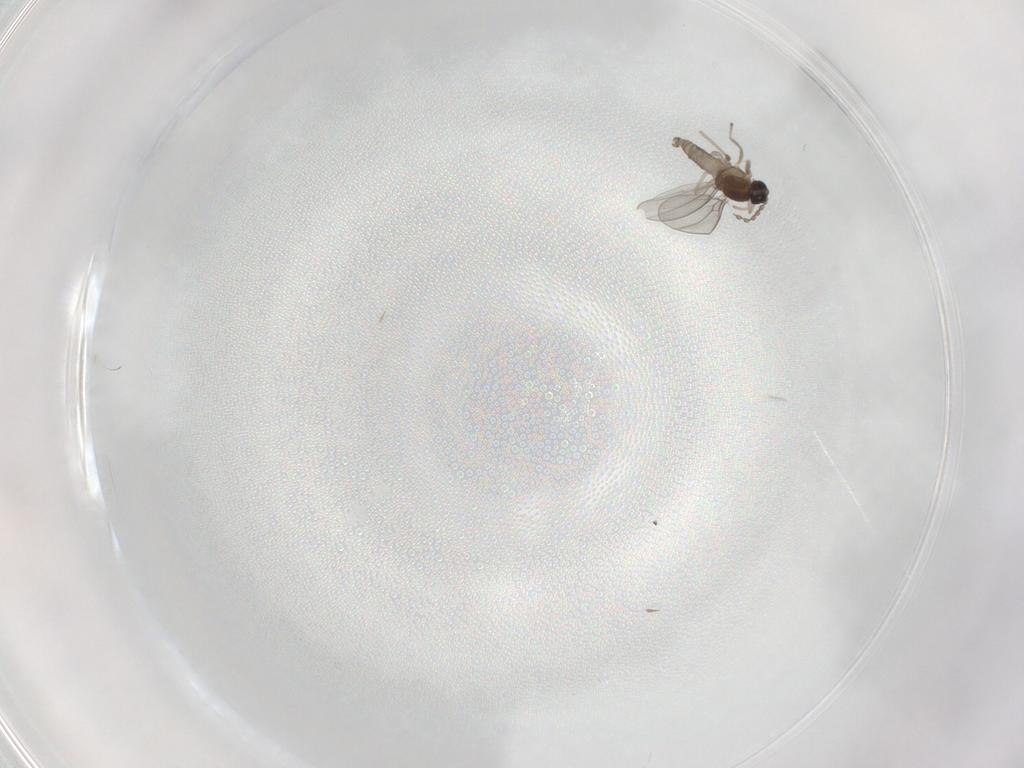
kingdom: Animalia
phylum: Arthropoda
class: Insecta
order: Diptera
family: Cecidomyiidae
